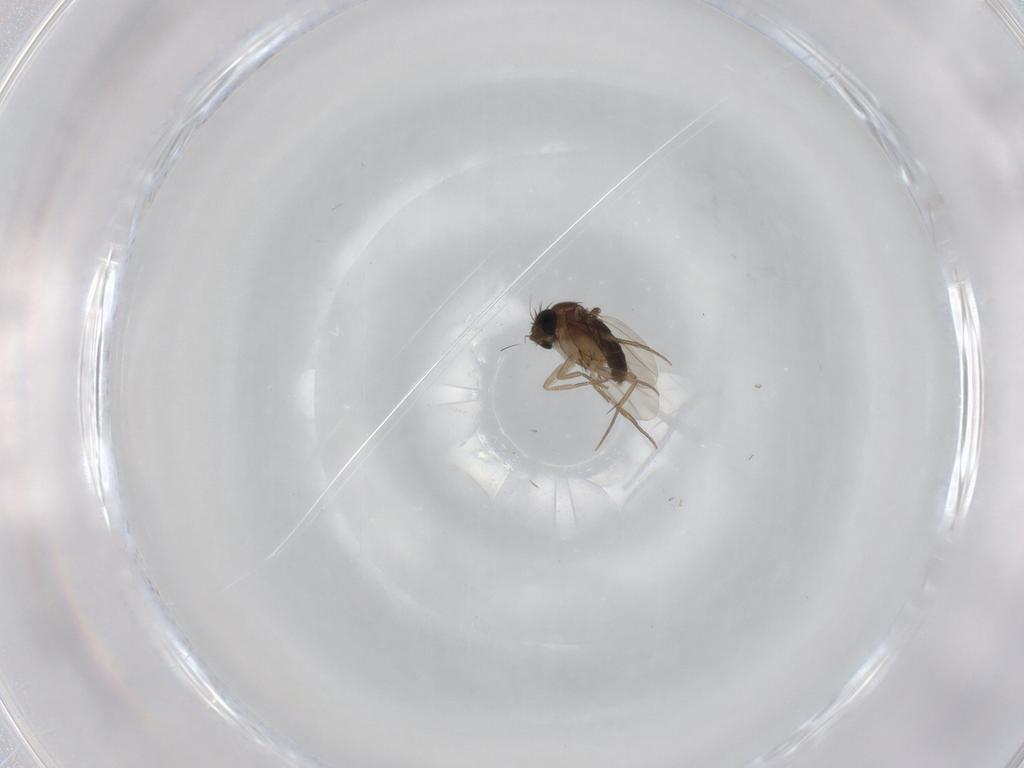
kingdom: Animalia
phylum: Arthropoda
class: Insecta
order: Diptera
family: Phoridae
